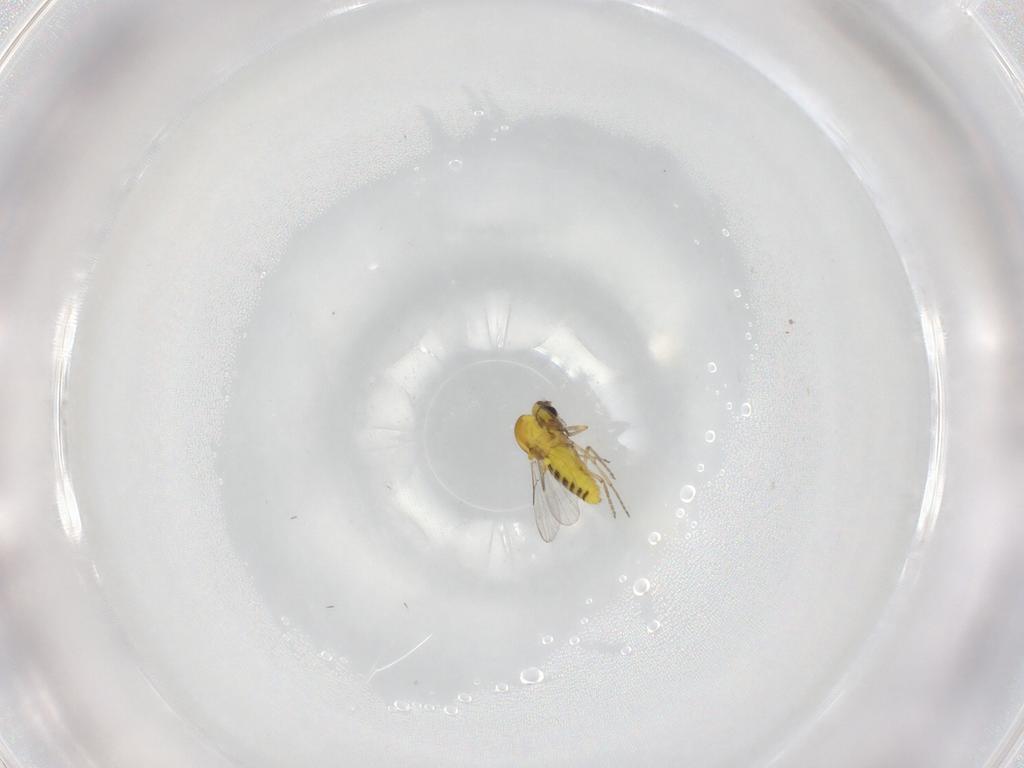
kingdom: Animalia
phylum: Arthropoda
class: Insecta
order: Diptera
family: Ceratopogonidae
